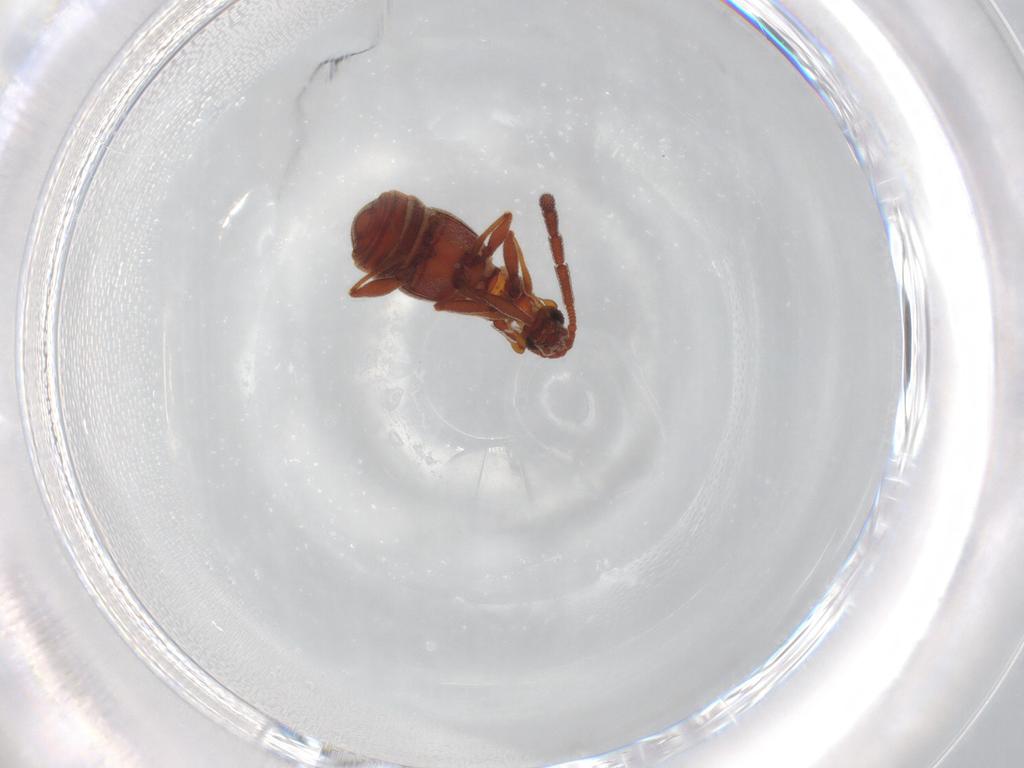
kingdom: Animalia
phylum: Arthropoda
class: Insecta
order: Coleoptera
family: Staphylinidae
